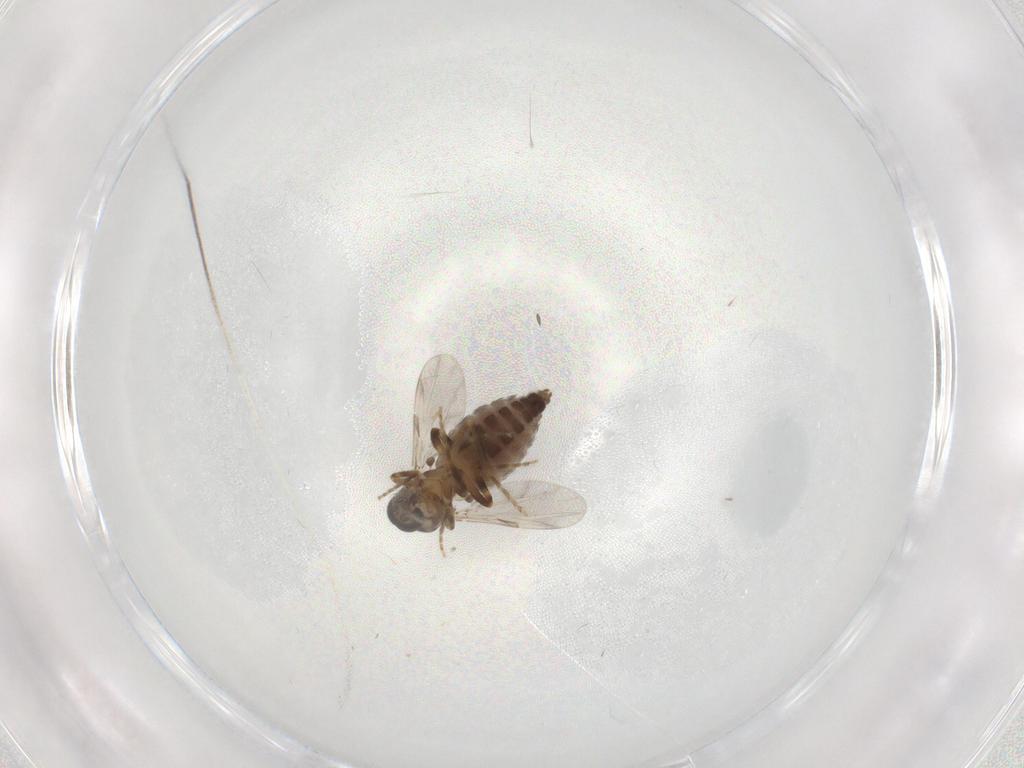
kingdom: Animalia
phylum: Arthropoda
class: Insecta
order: Diptera
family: Ceratopogonidae
